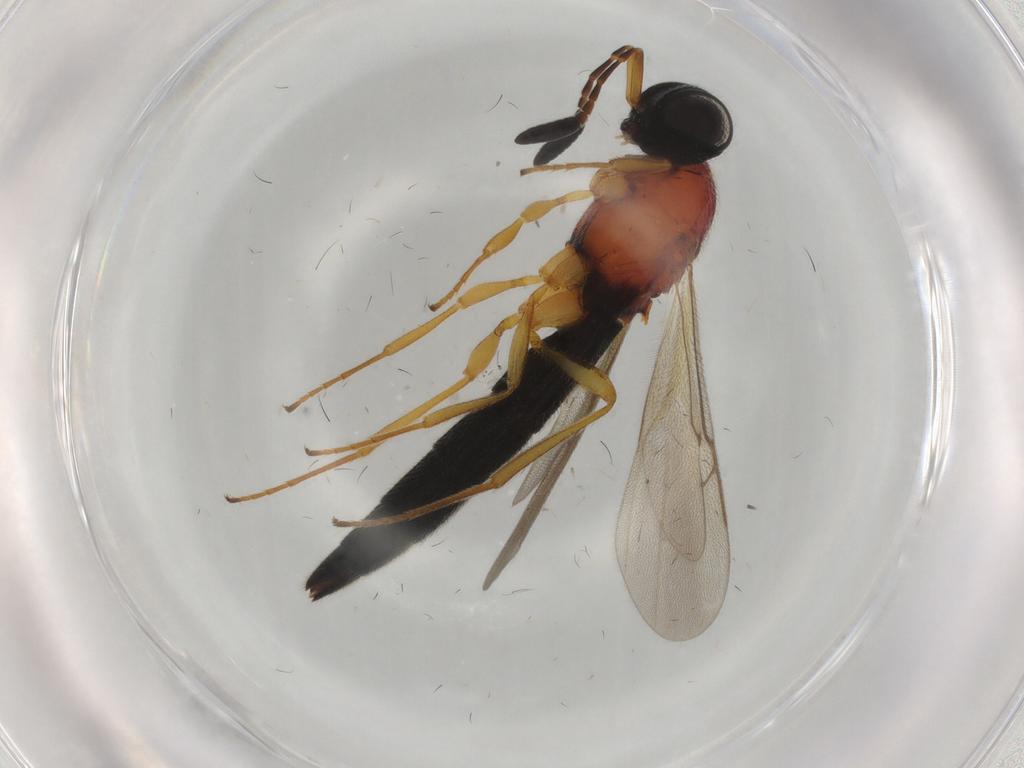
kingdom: Animalia
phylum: Arthropoda
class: Insecta
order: Hymenoptera
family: Scelionidae
